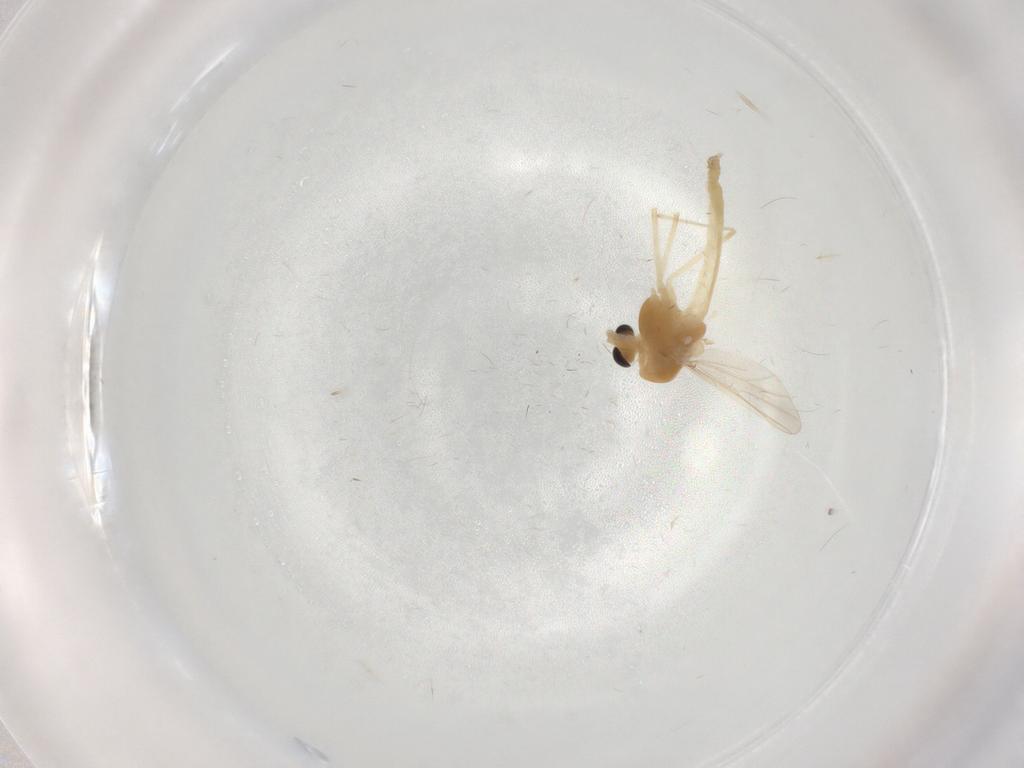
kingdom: Animalia
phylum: Arthropoda
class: Insecta
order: Diptera
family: Chironomidae
